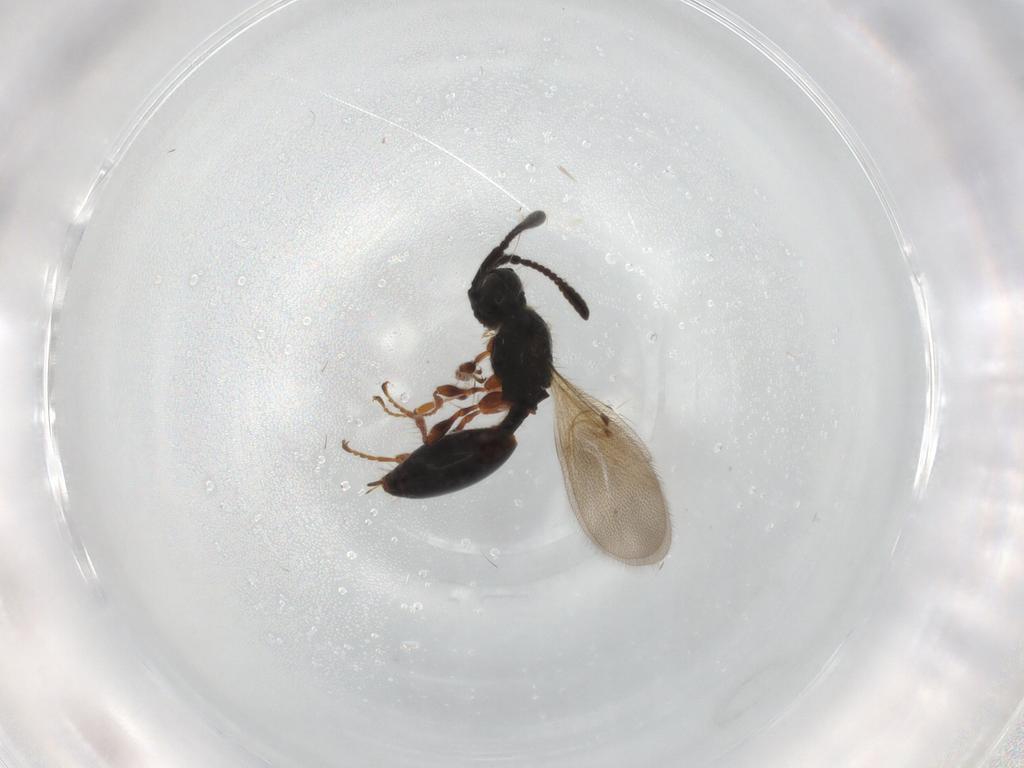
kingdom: Animalia
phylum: Arthropoda
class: Insecta
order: Hymenoptera
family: Diapriidae
